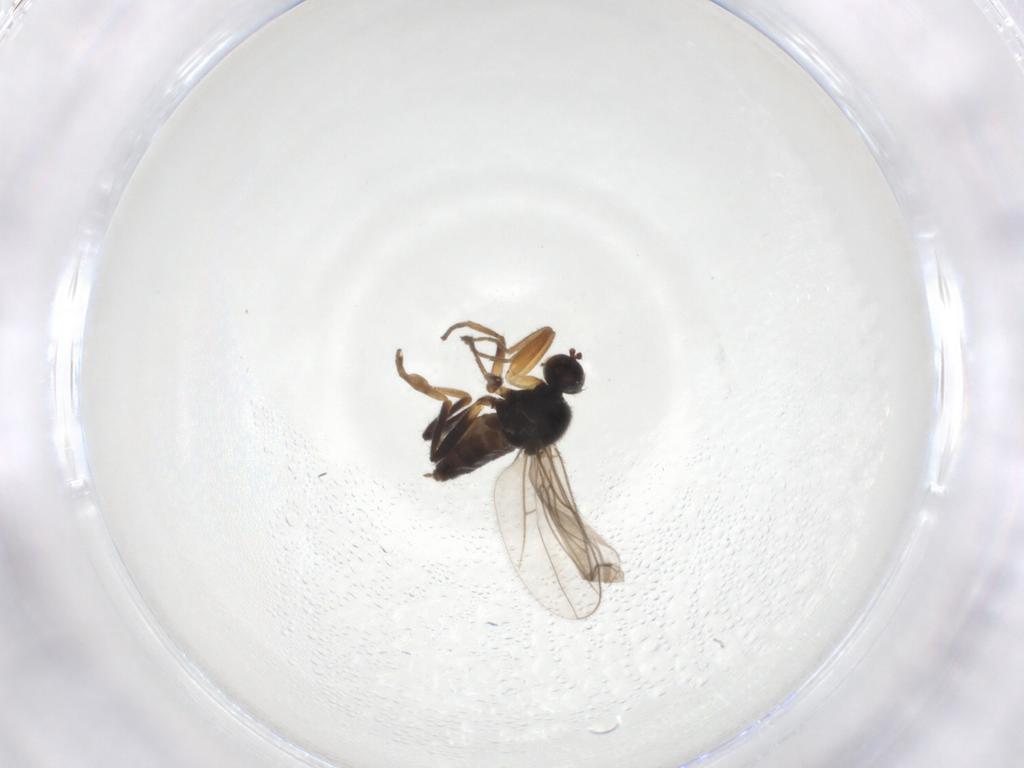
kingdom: Animalia
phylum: Arthropoda
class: Insecta
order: Diptera
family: Hybotidae
